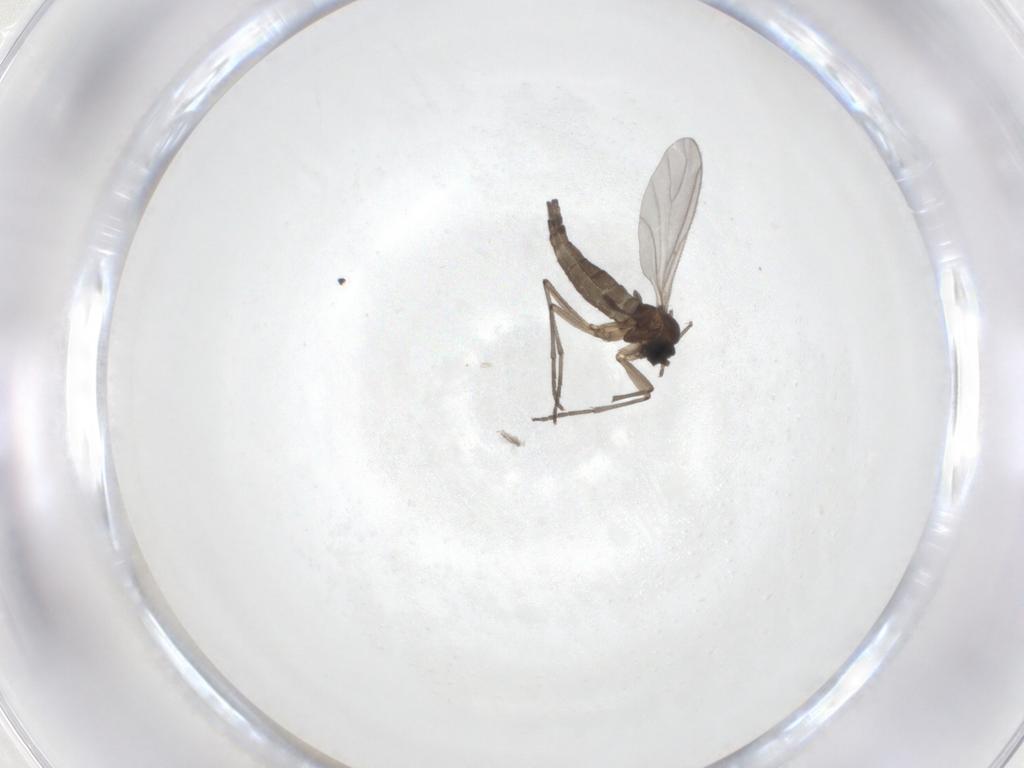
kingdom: Animalia
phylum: Arthropoda
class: Insecta
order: Diptera
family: Sciaridae
